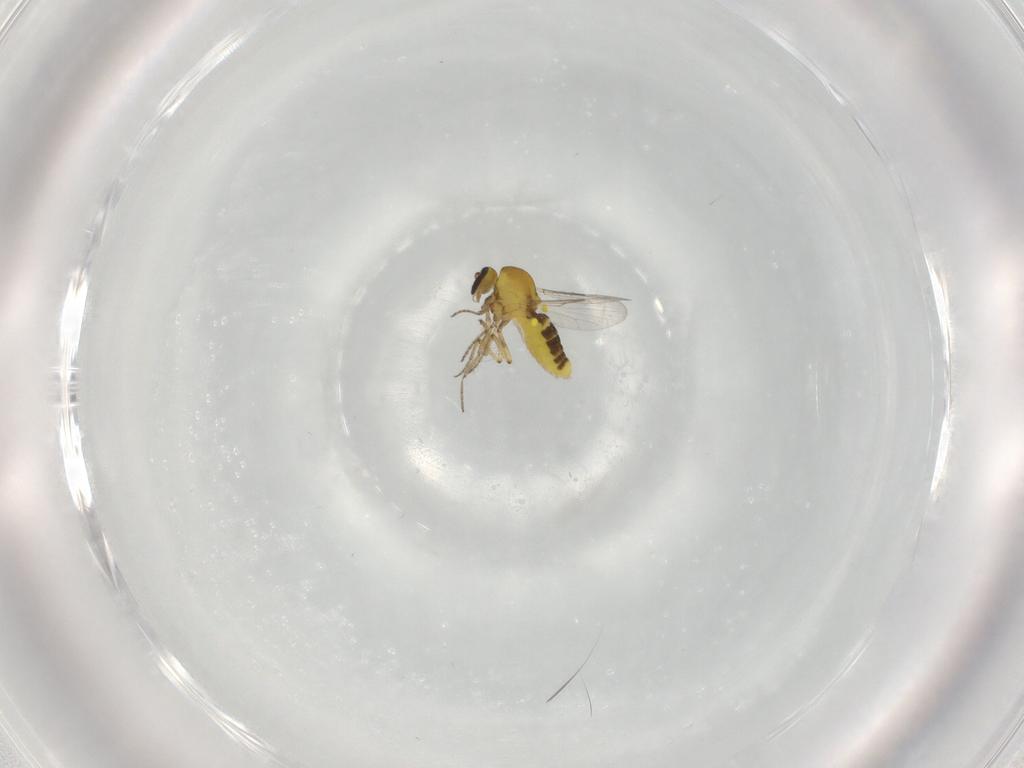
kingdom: Animalia
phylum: Arthropoda
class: Insecta
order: Diptera
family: Ceratopogonidae
